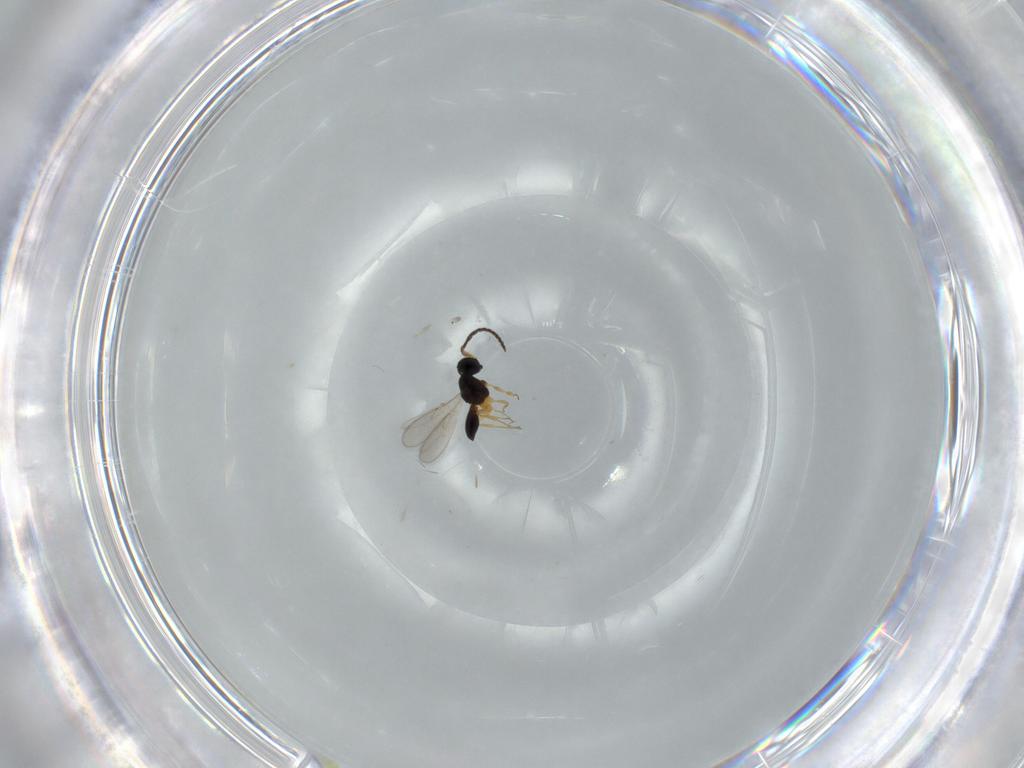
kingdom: Animalia
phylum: Arthropoda
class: Insecta
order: Hymenoptera
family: Scelionidae
